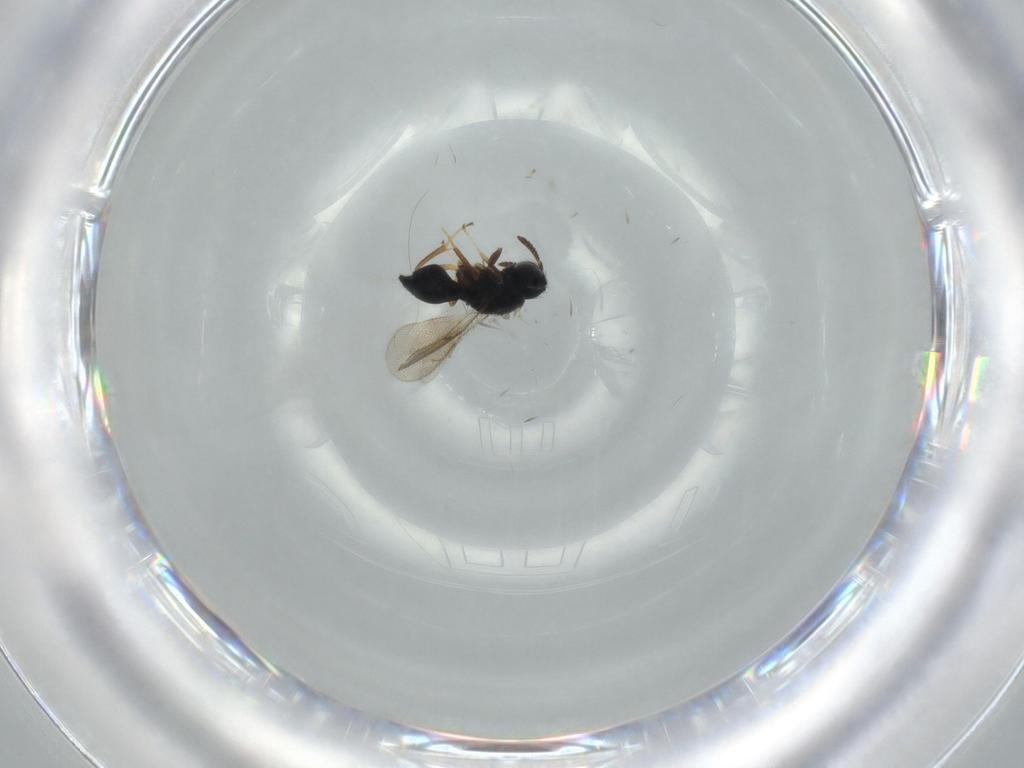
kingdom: Animalia
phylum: Arthropoda
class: Insecta
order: Hymenoptera
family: Pteromalidae
